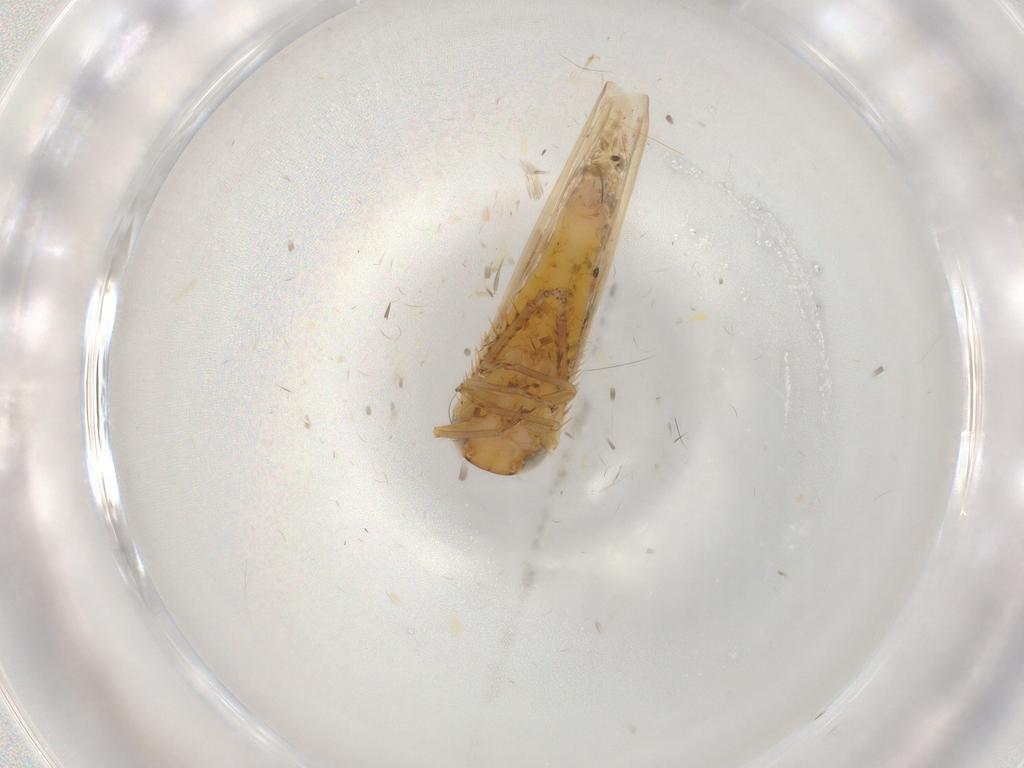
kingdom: Animalia
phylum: Arthropoda
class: Insecta
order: Hemiptera
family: Cicadellidae
